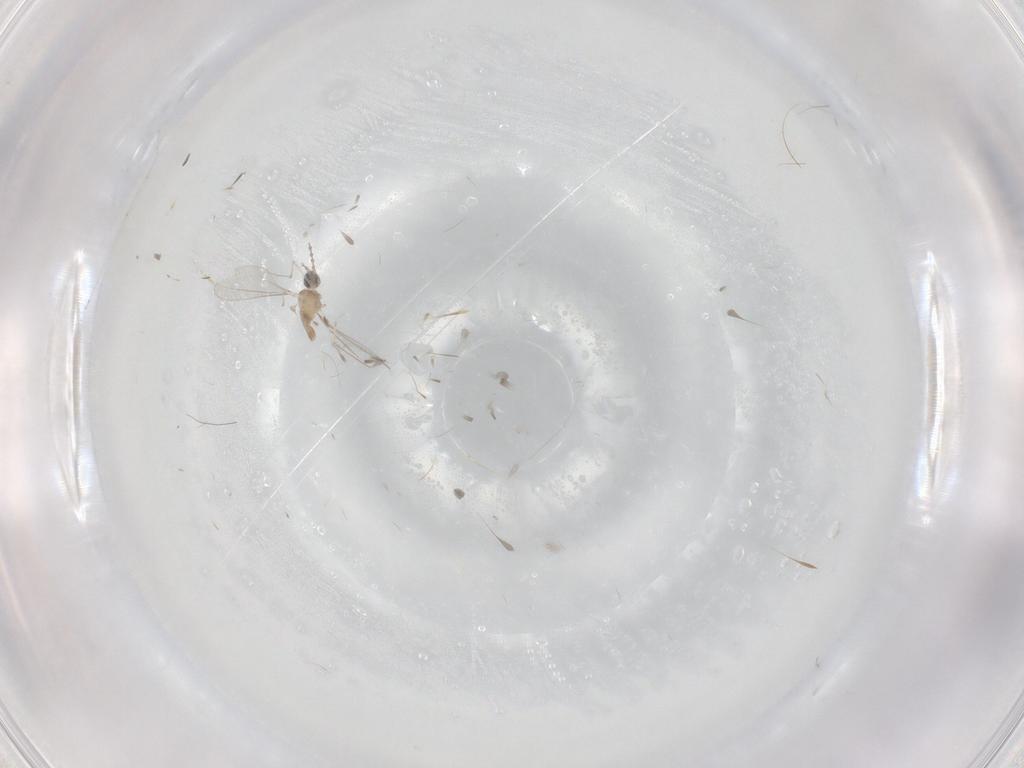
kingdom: Animalia
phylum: Arthropoda
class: Insecta
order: Diptera
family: Cecidomyiidae
